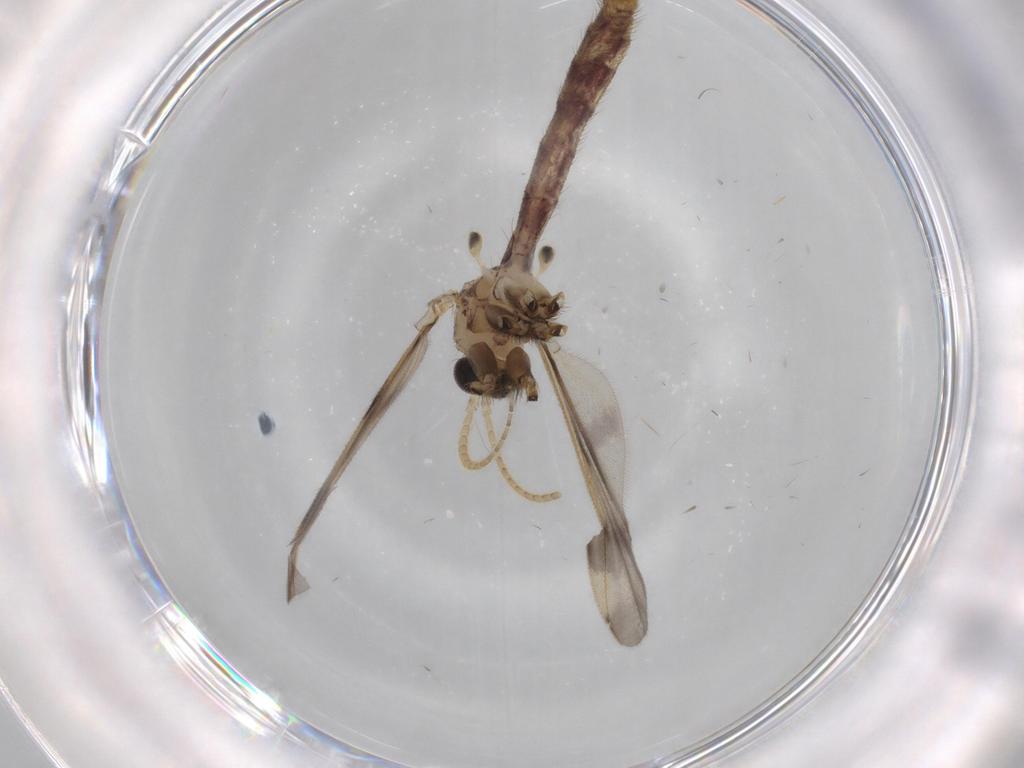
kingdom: Animalia
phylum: Arthropoda
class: Insecta
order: Diptera
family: Cecidomyiidae
